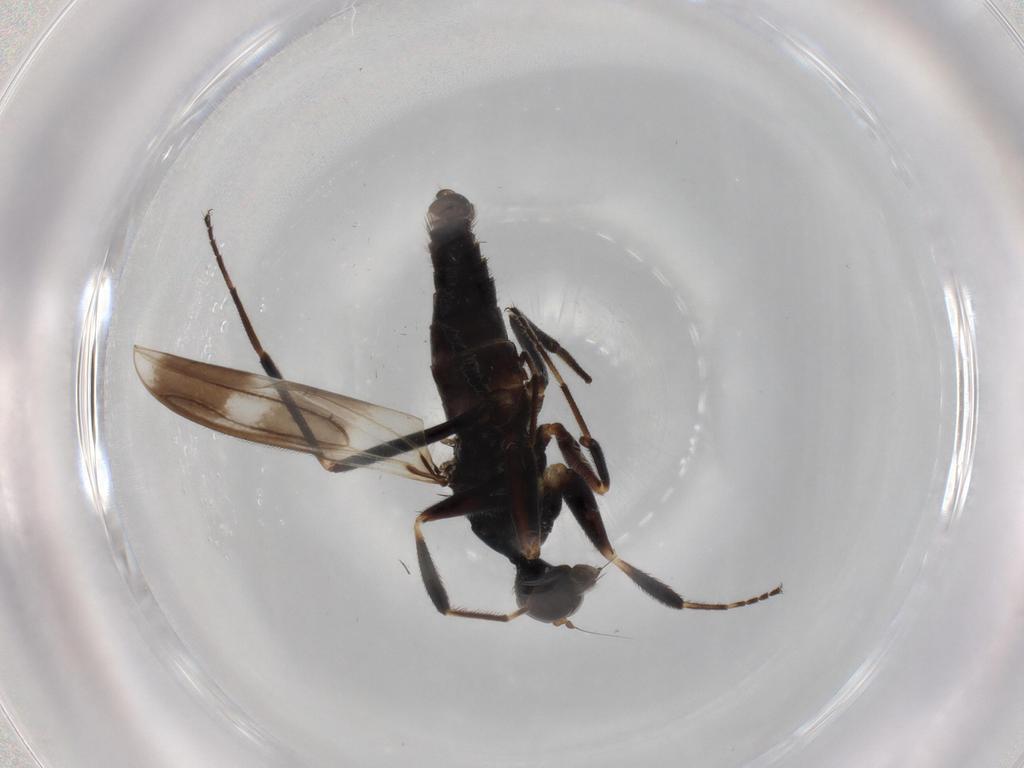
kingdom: Animalia
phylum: Arthropoda
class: Insecta
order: Diptera
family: Hybotidae
